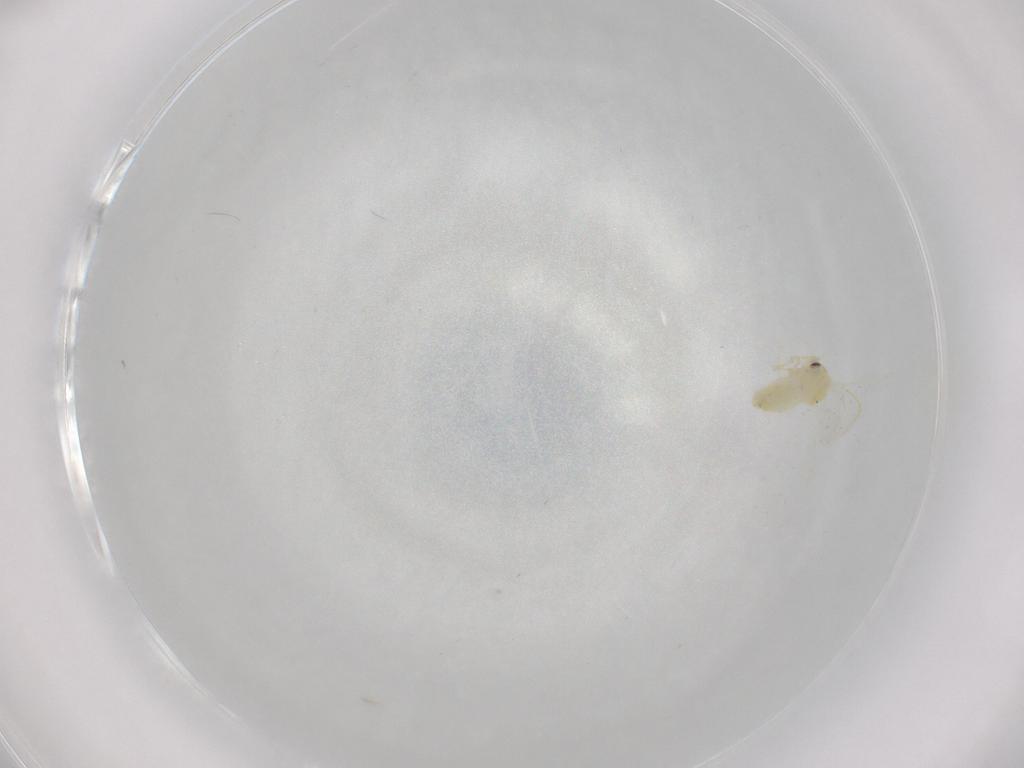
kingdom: Animalia
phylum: Arthropoda
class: Insecta
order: Hemiptera
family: Aleyrodidae
